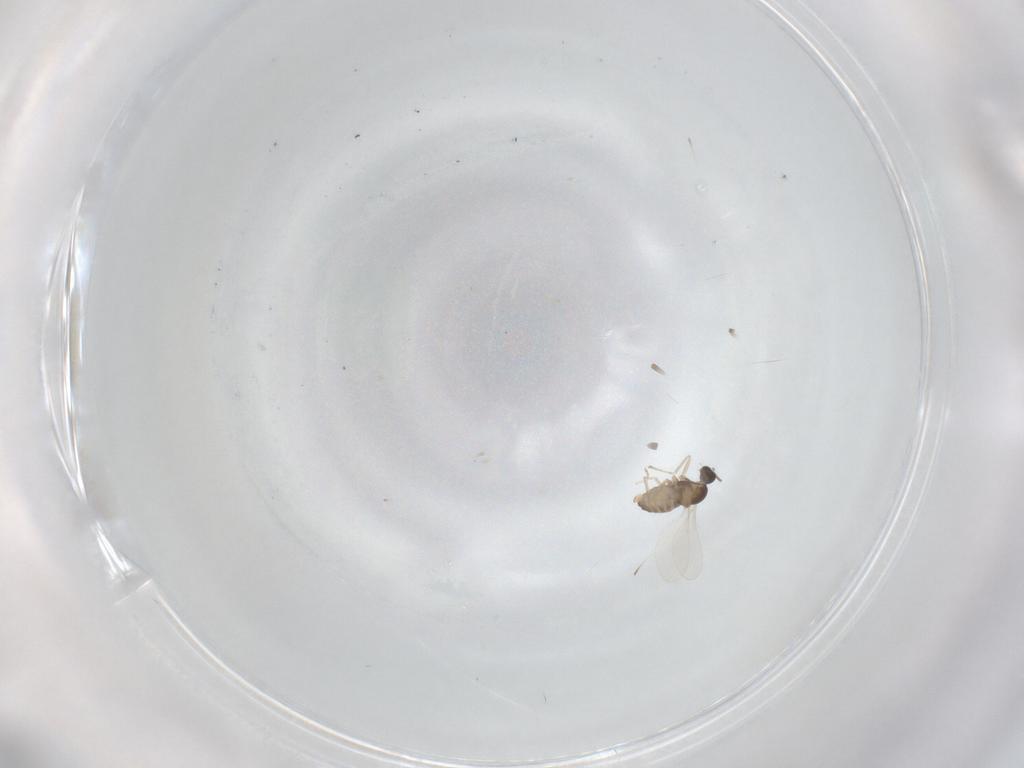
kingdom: Animalia
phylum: Arthropoda
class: Insecta
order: Diptera
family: Cecidomyiidae
